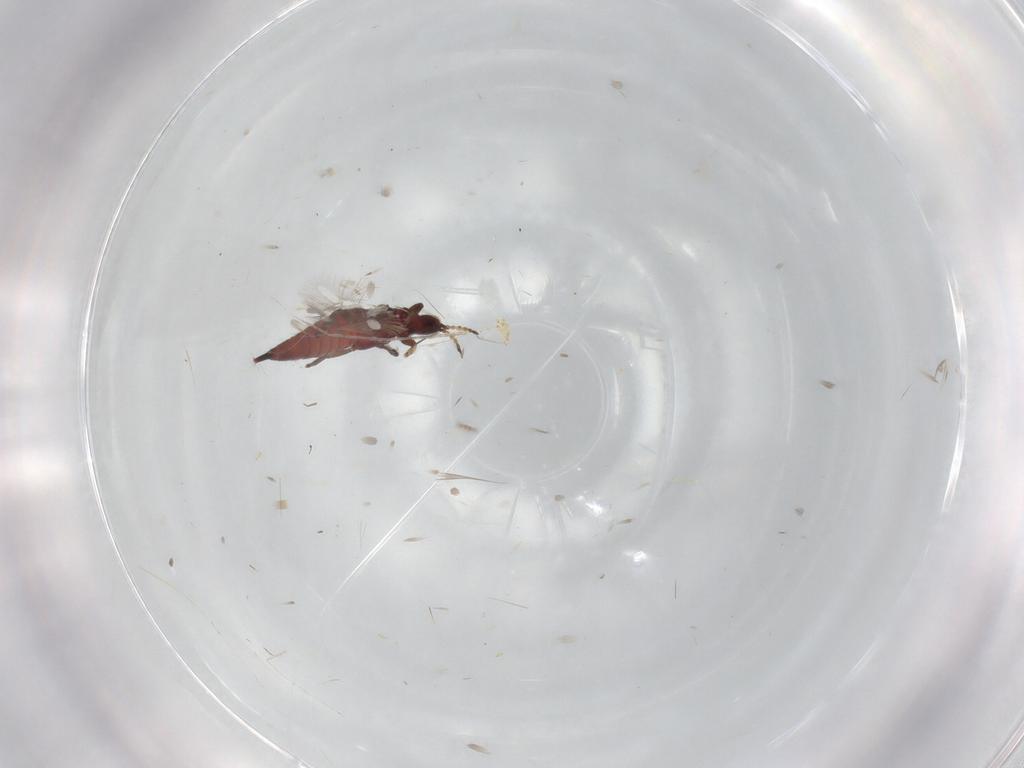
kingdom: Animalia
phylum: Arthropoda
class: Insecta
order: Thysanoptera
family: Phlaeothripidae
